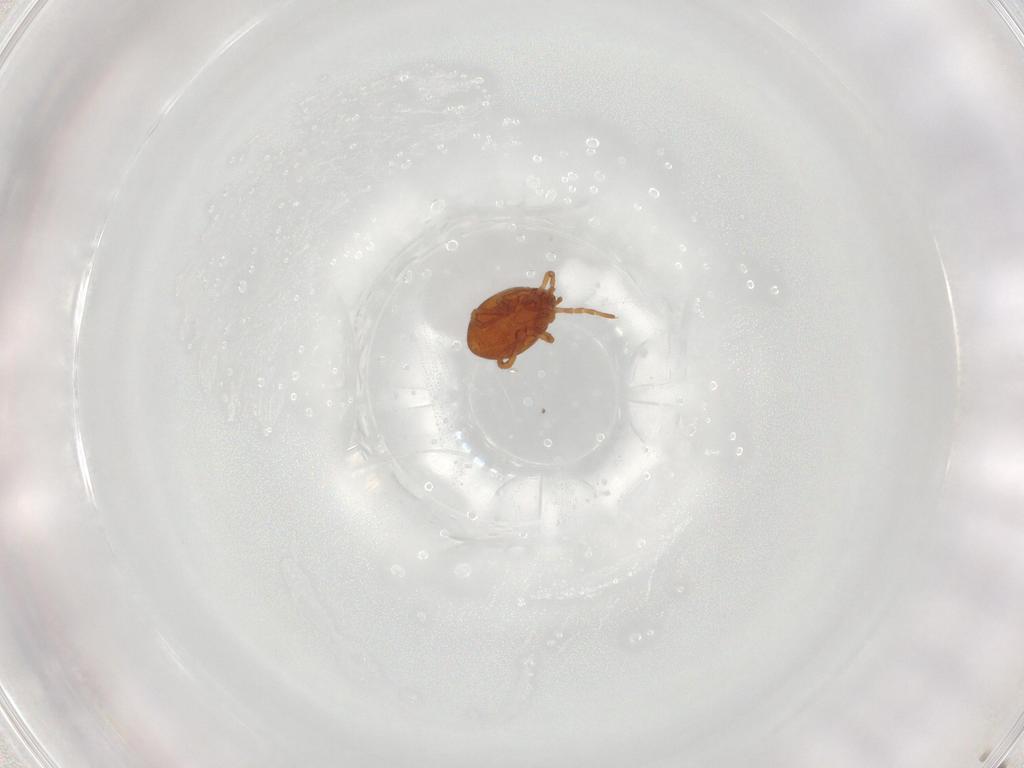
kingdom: Animalia
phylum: Arthropoda
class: Arachnida
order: Mesostigmata
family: Parasitidae
